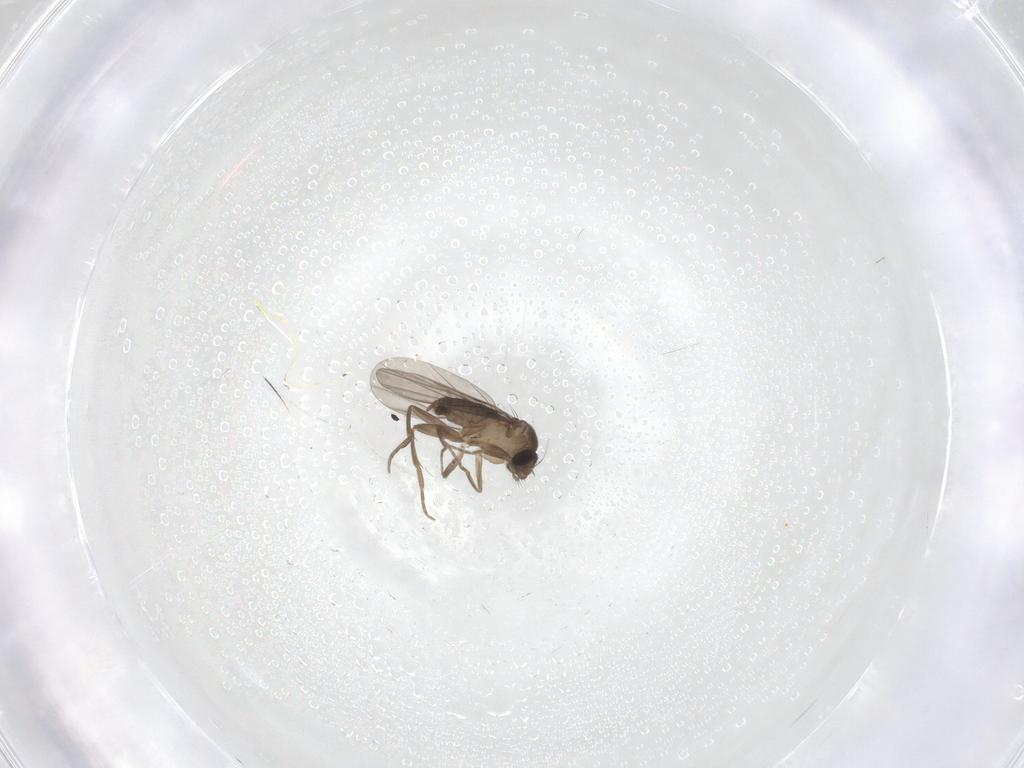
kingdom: Animalia
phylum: Arthropoda
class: Insecta
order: Diptera
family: Phoridae
